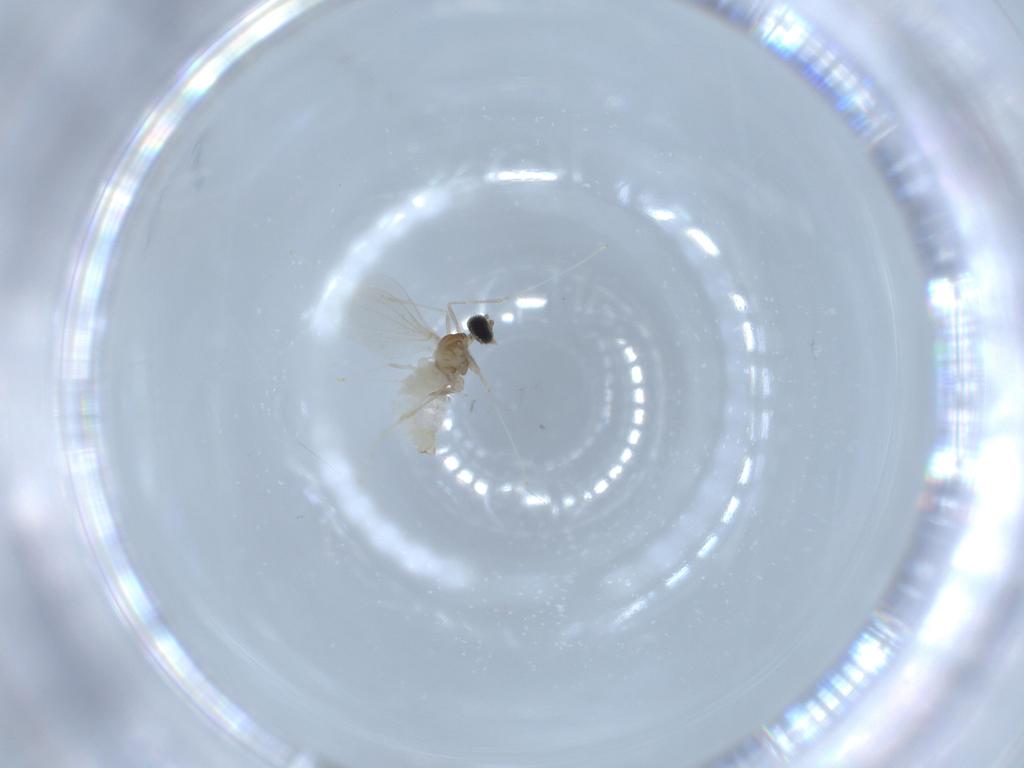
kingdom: Animalia
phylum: Arthropoda
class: Insecta
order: Diptera
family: Cecidomyiidae
